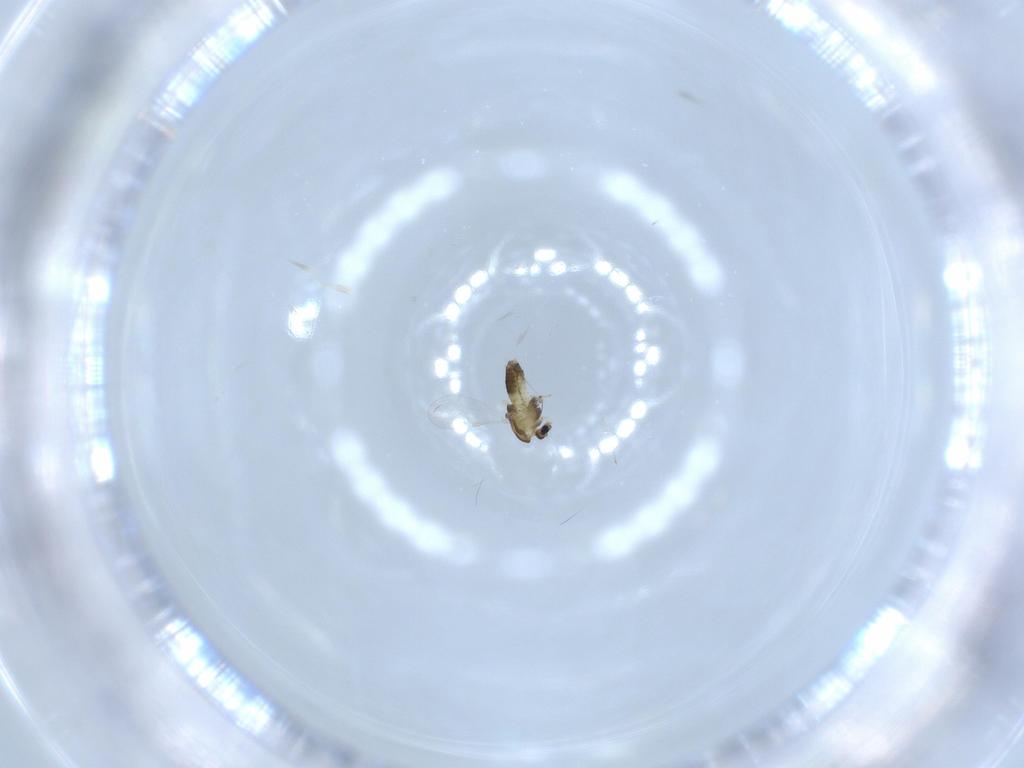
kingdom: Animalia
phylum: Arthropoda
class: Insecta
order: Diptera
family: Chironomidae
